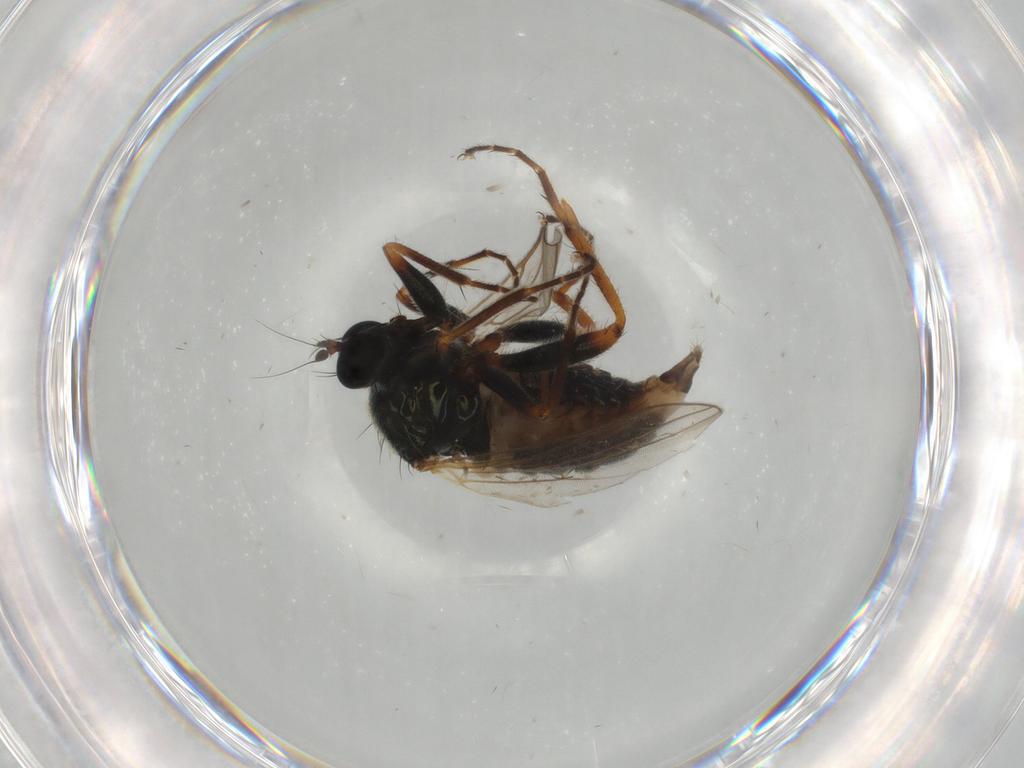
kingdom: Animalia
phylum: Arthropoda
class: Insecta
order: Diptera
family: Hybotidae
